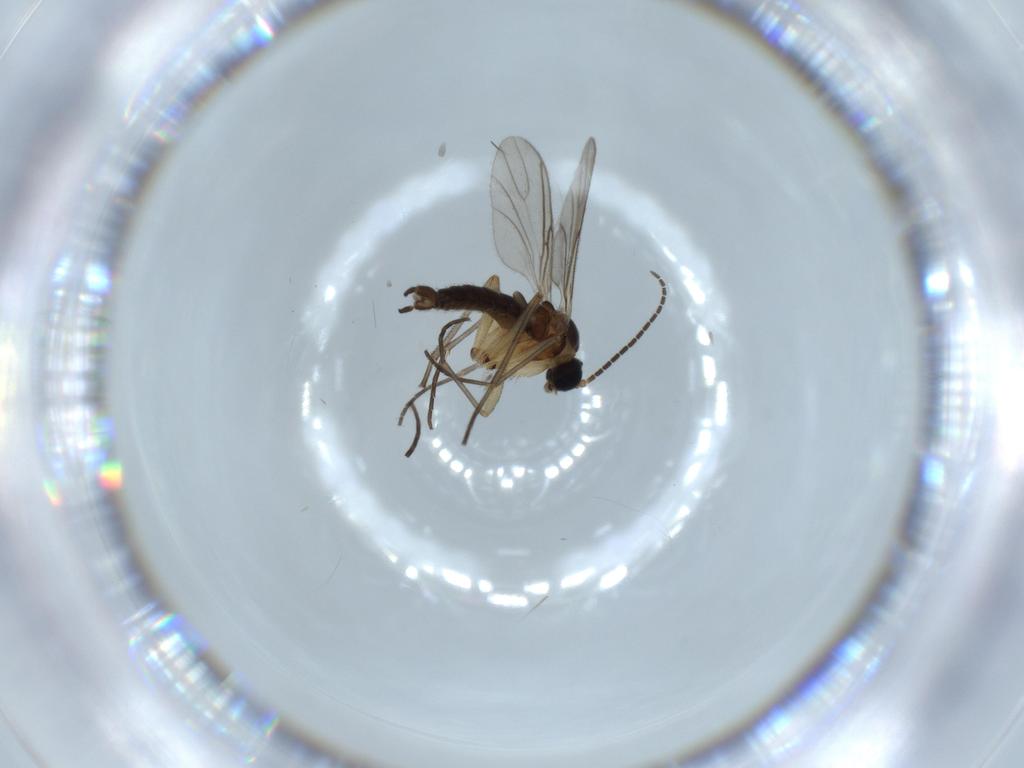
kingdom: Animalia
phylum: Arthropoda
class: Insecta
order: Diptera
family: Sciaridae
